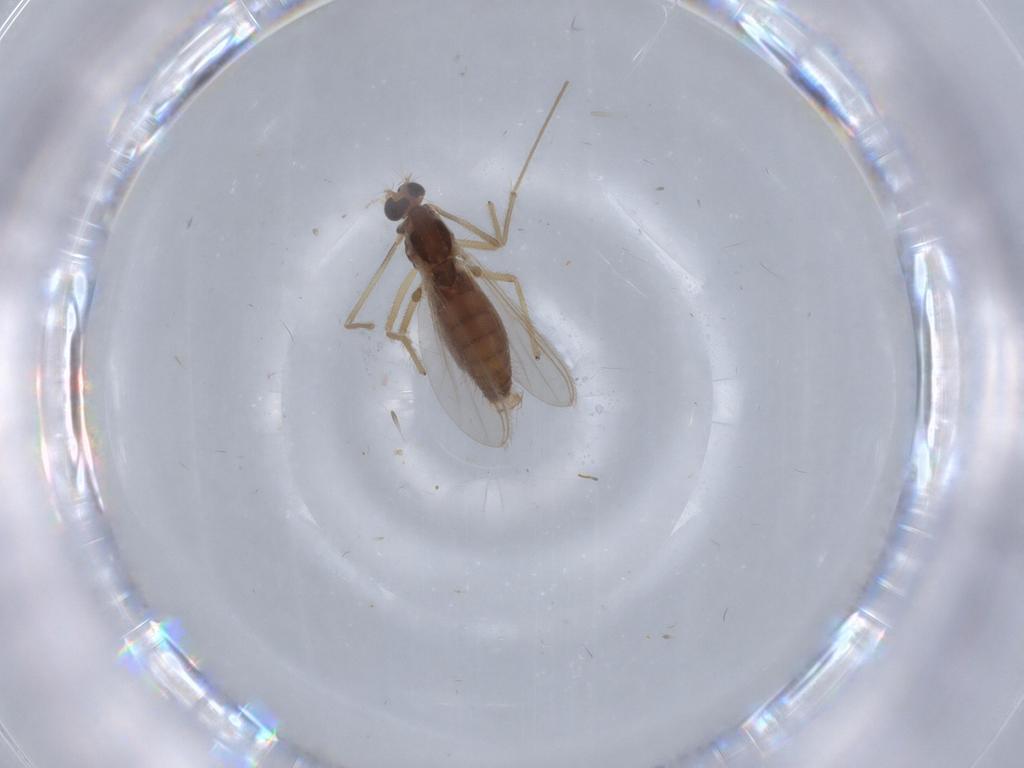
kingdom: Animalia
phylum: Arthropoda
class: Insecta
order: Diptera
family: Chironomidae
